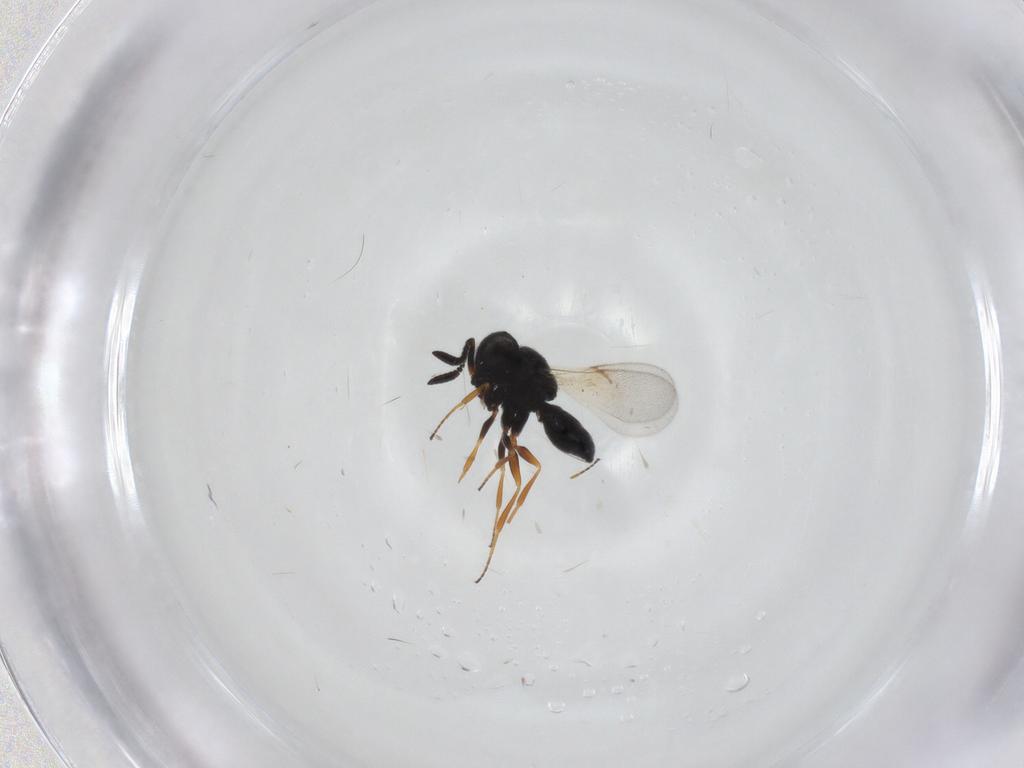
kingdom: Animalia
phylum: Arthropoda
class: Insecta
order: Hymenoptera
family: Scelionidae
